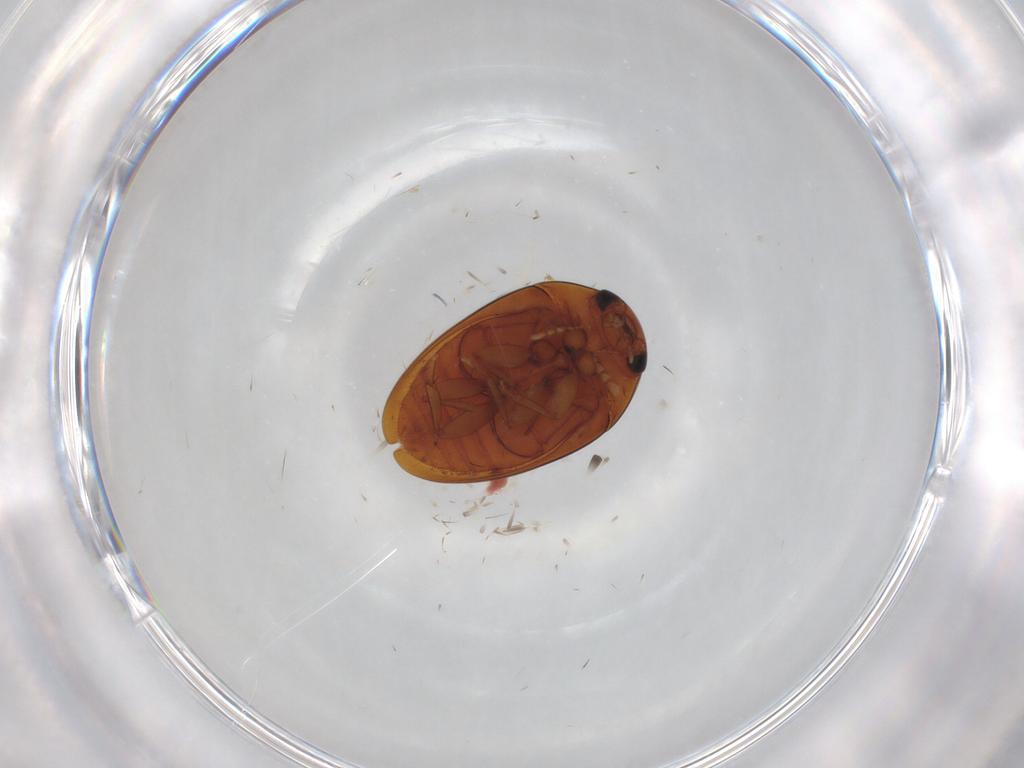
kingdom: Animalia
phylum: Arthropoda
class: Insecta
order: Coleoptera
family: Phalacridae
